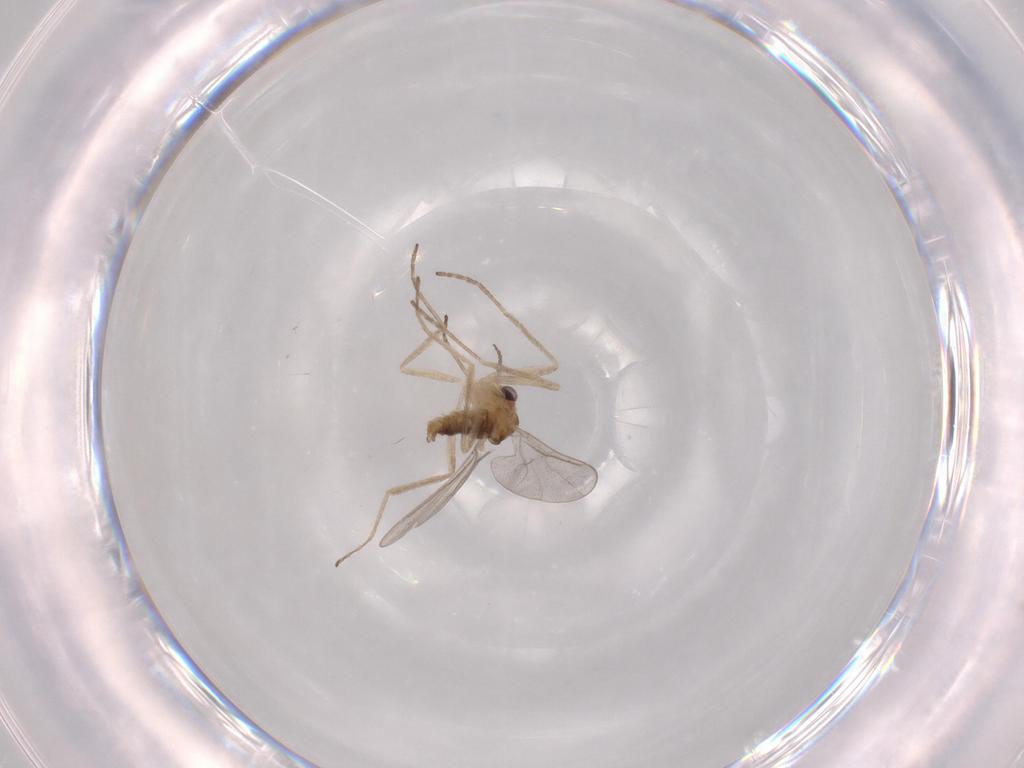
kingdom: Animalia
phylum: Arthropoda
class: Insecta
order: Diptera
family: Cecidomyiidae
